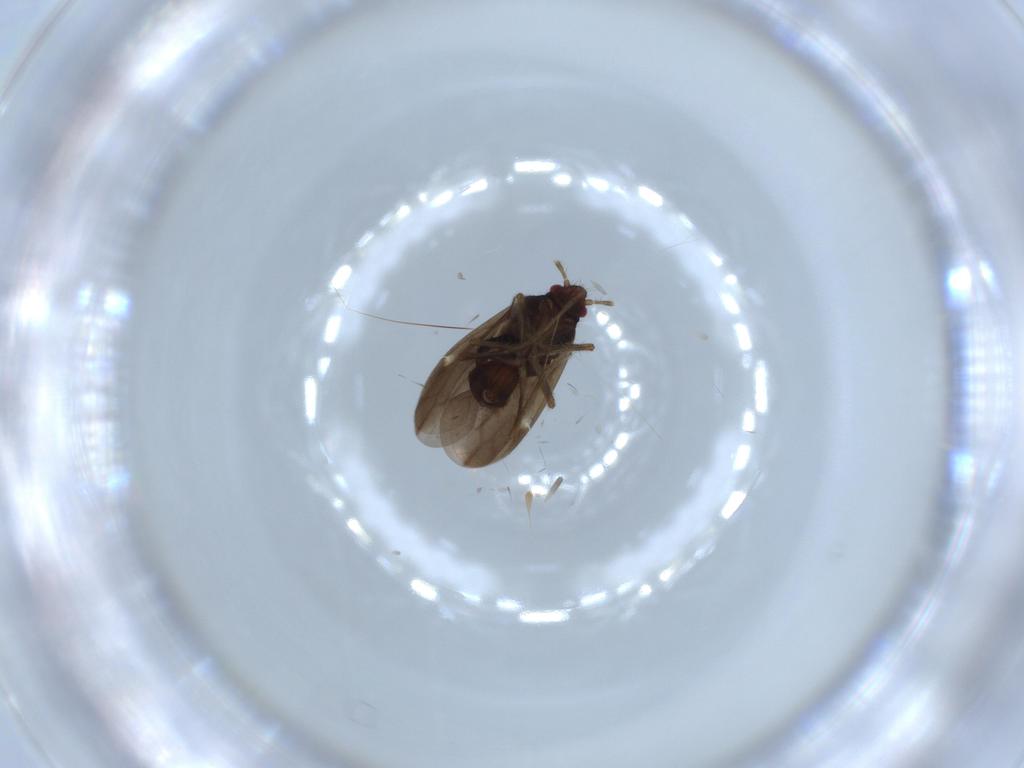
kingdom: Animalia
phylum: Arthropoda
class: Insecta
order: Hemiptera
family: Ceratocombidae
